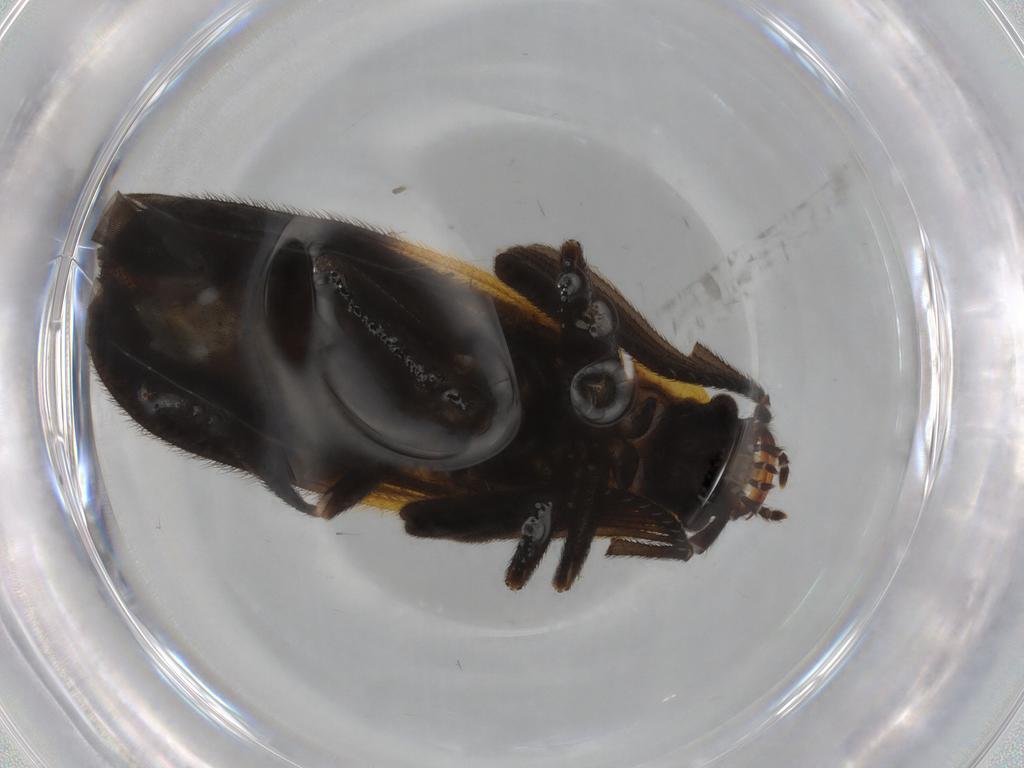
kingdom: Animalia
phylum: Arthropoda
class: Insecta
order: Coleoptera
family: Lampyridae
